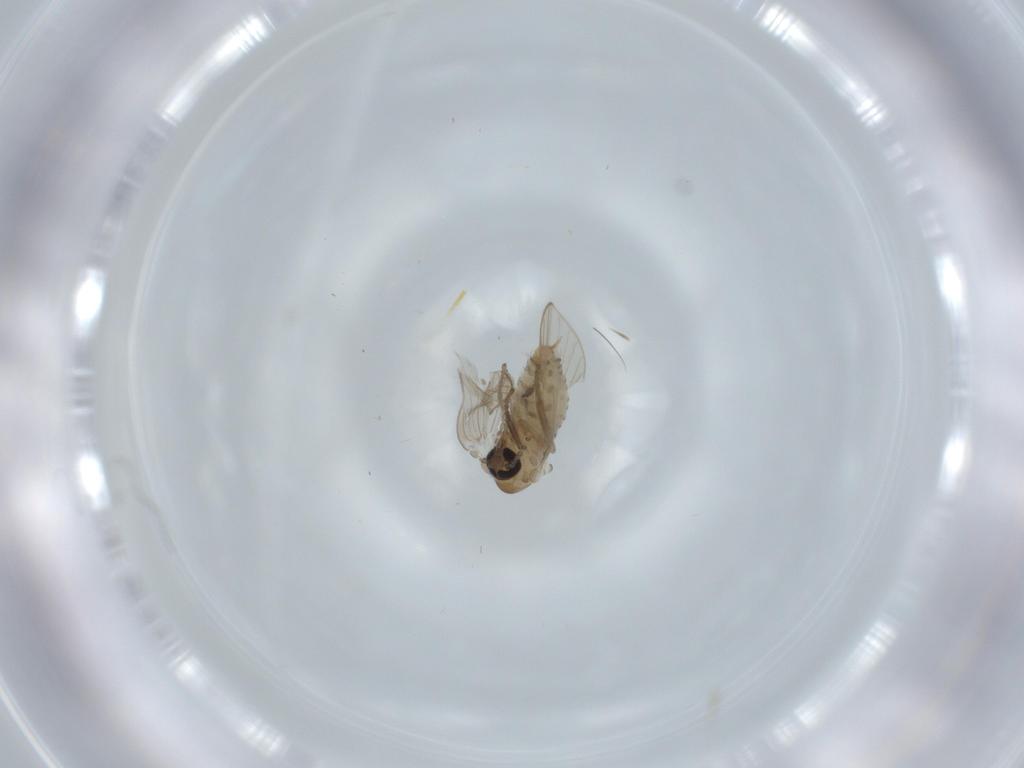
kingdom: Animalia
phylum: Arthropoda
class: Insecta
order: Diptera
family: Psychodidae
